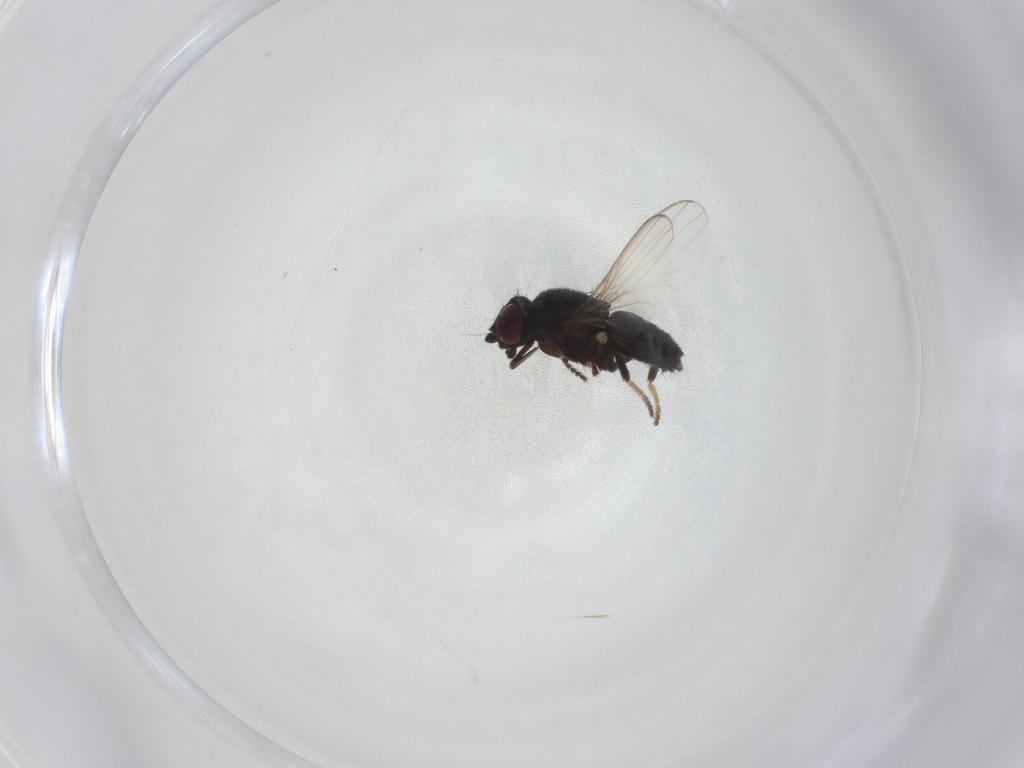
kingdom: Animalia
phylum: Arthropoda
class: Insecta
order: Diptera
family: Milichiidae
